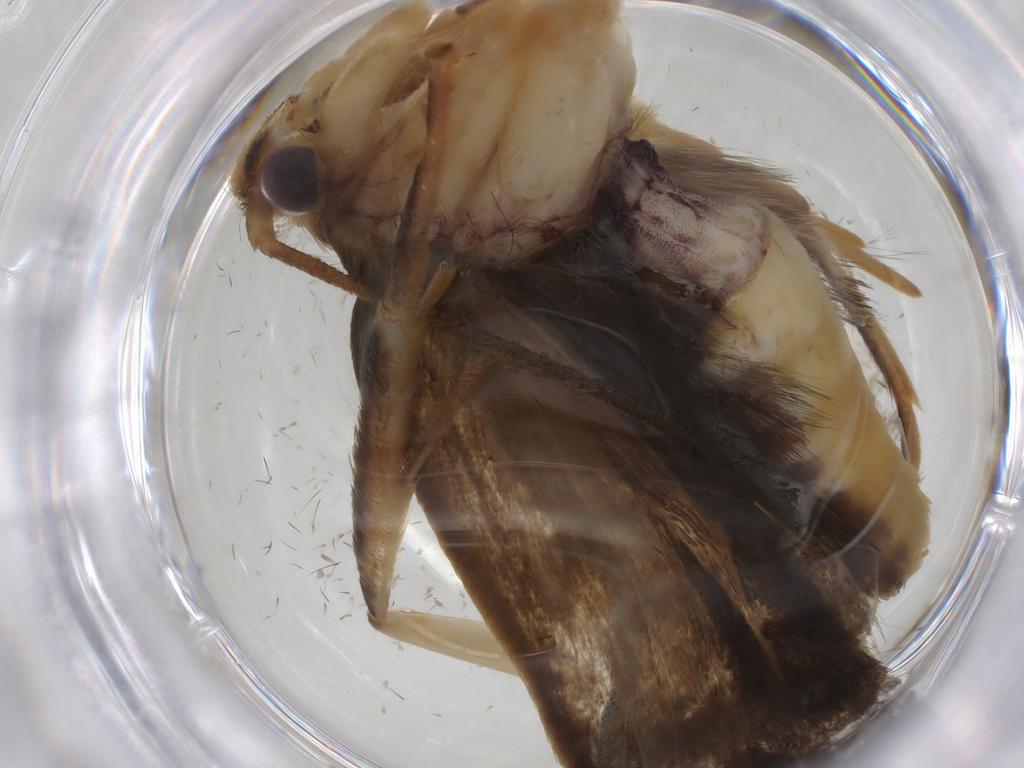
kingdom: Animalia
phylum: Arthropoda
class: Insecta
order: Lepidoptera
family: Depressariidae
